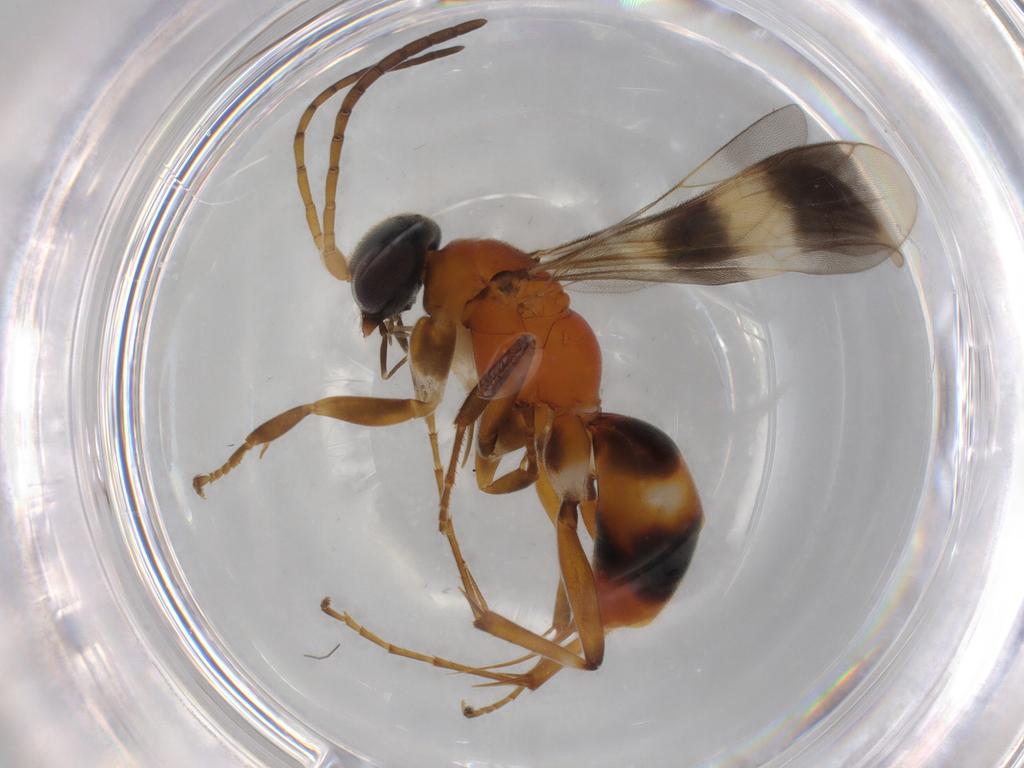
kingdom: Animalia
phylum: Arthropoda
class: Insecta
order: Hymenoptera
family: Pompilidae
